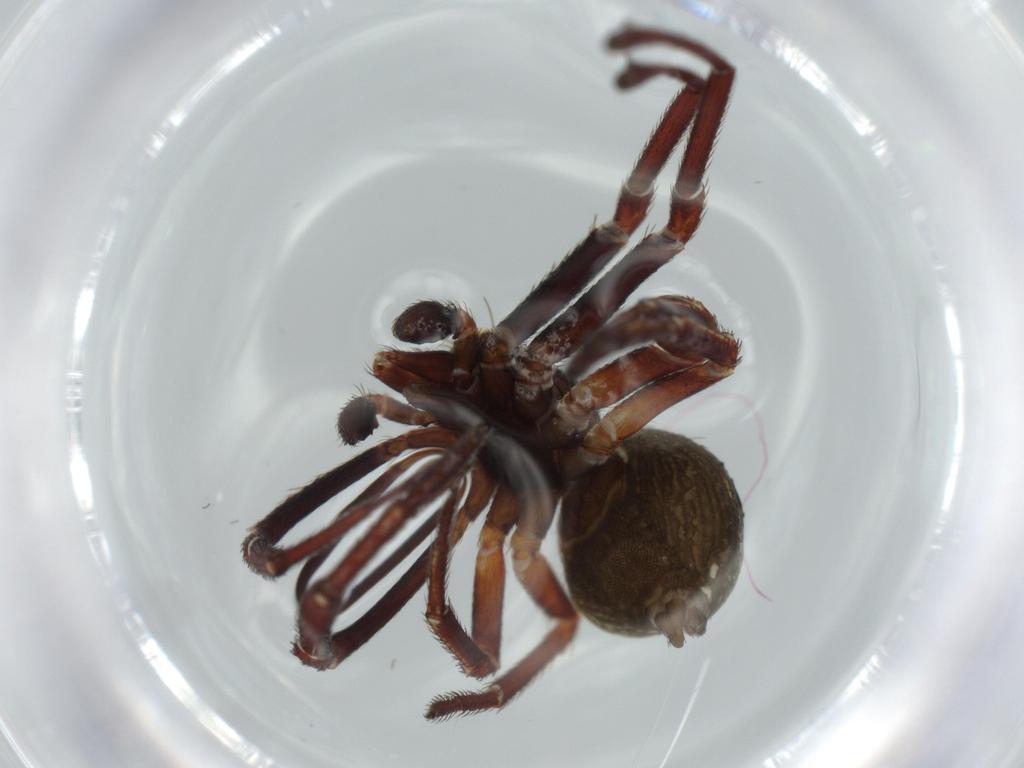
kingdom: Animalia
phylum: Arthropoda
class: Arachnida
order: Araneae
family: Thomisidae
